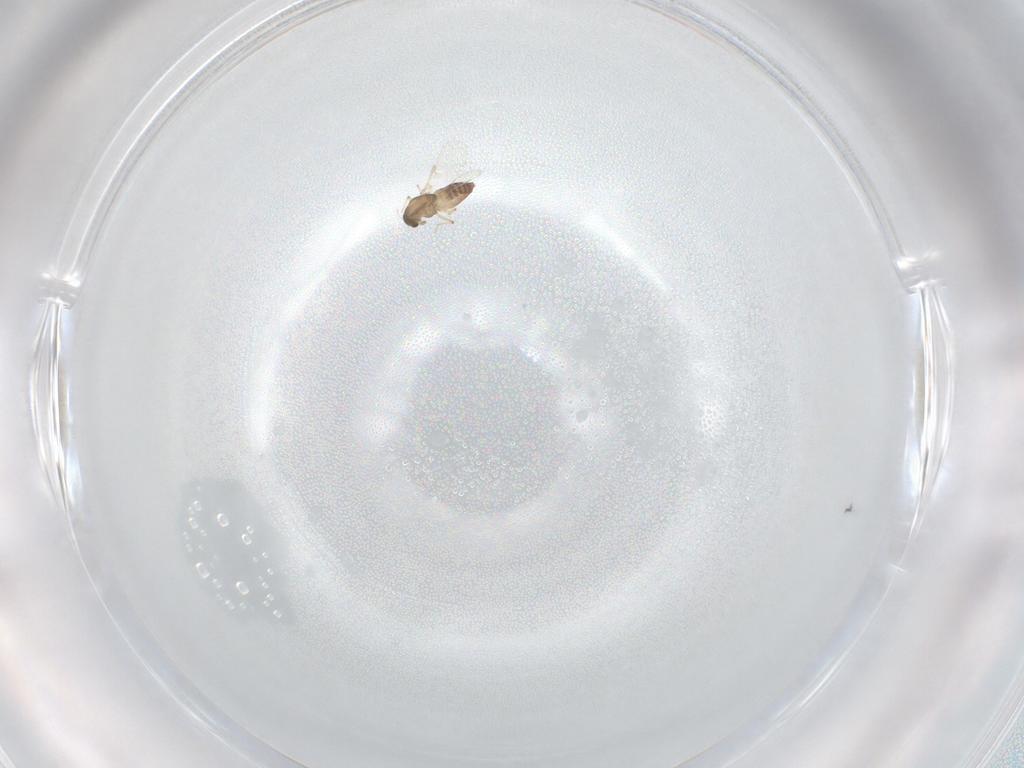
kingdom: Animalia
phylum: Arthropoda
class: Insecta
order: Diptera
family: Chironomidae
